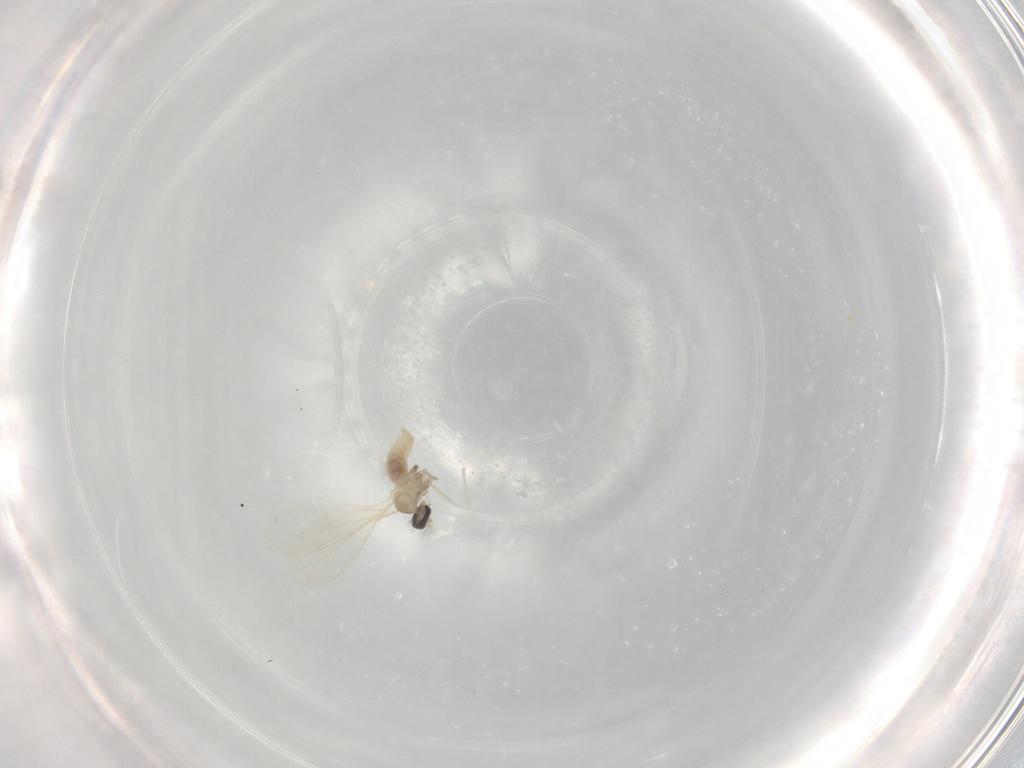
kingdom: Animalia
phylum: Arthropoda
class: Insecta
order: Diptera
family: Cecidomyiidae
